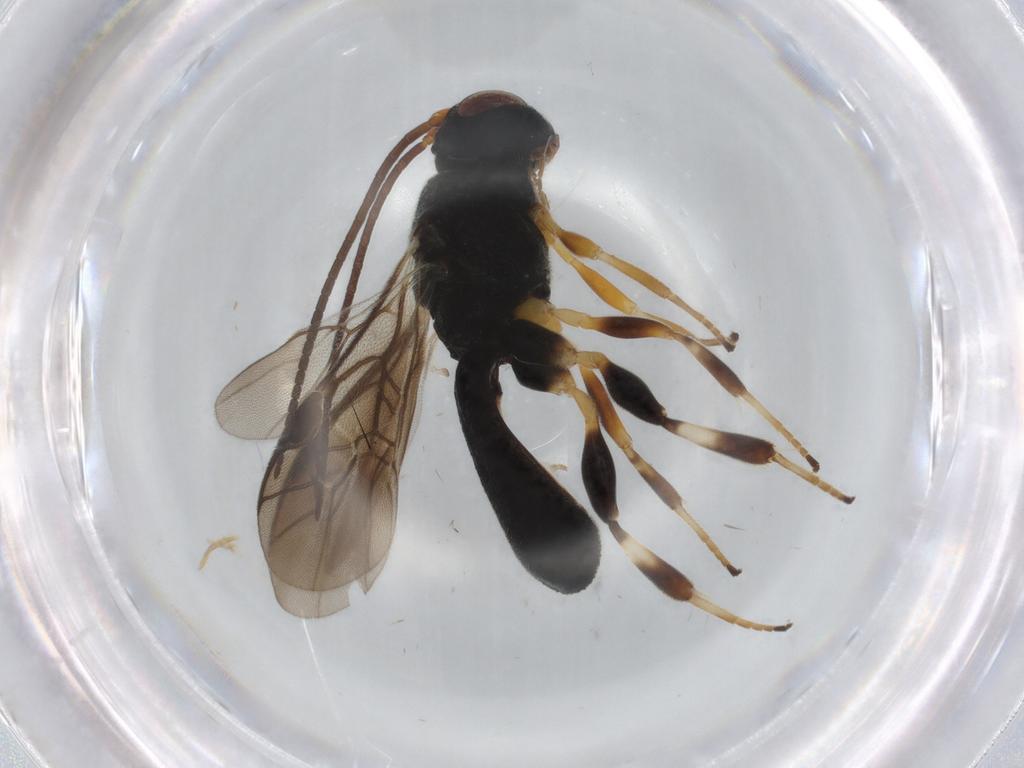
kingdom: Animalia
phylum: Arthropoda
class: Insecta
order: Hymenoptera
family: Braconidae
